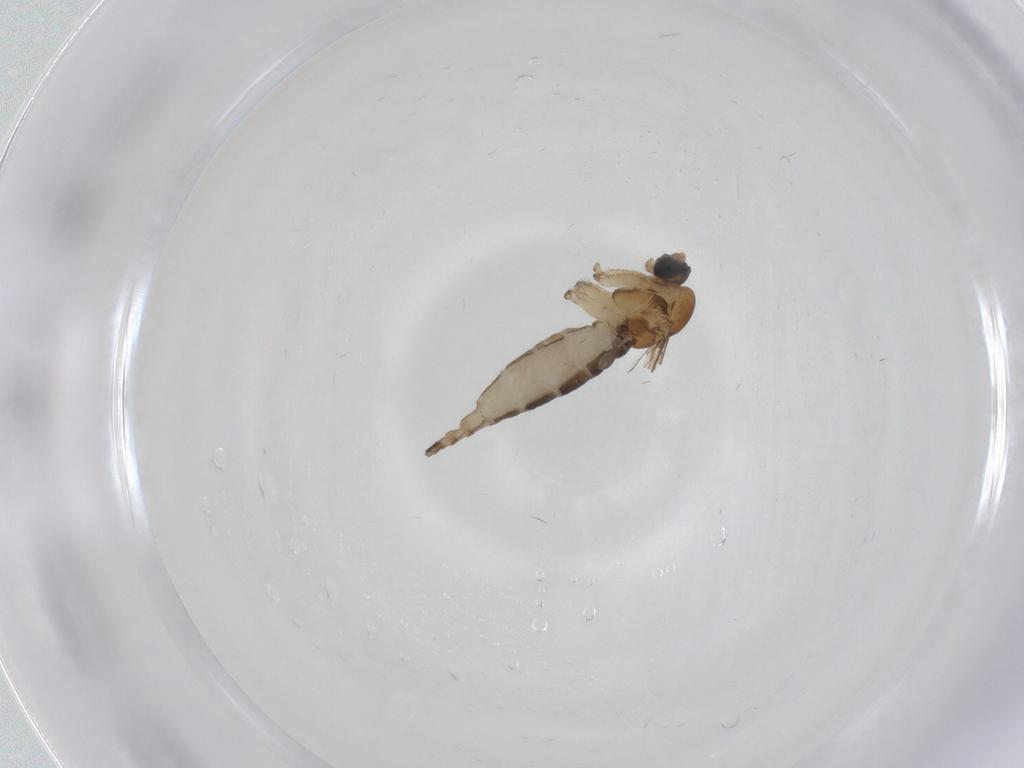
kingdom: Animalia
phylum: Arthropoda
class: Insecta
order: Diptera
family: Sciaridae
